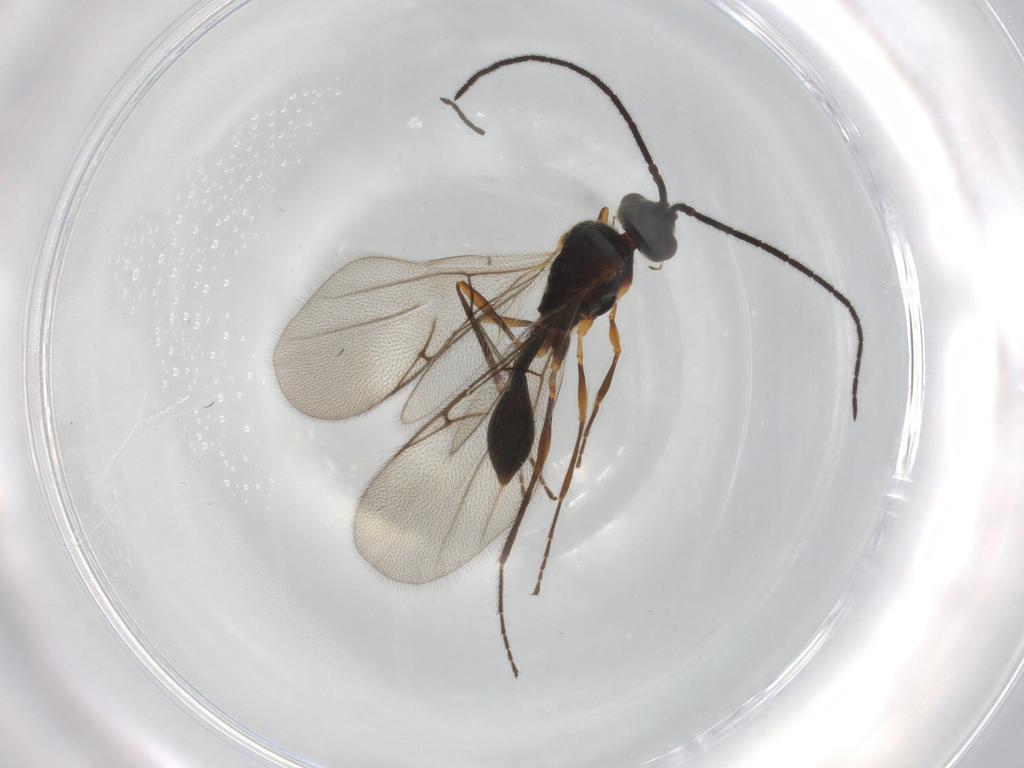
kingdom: Animalia
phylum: Arthropoda
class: Insecta
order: Hymenoptera
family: Diapriidae
